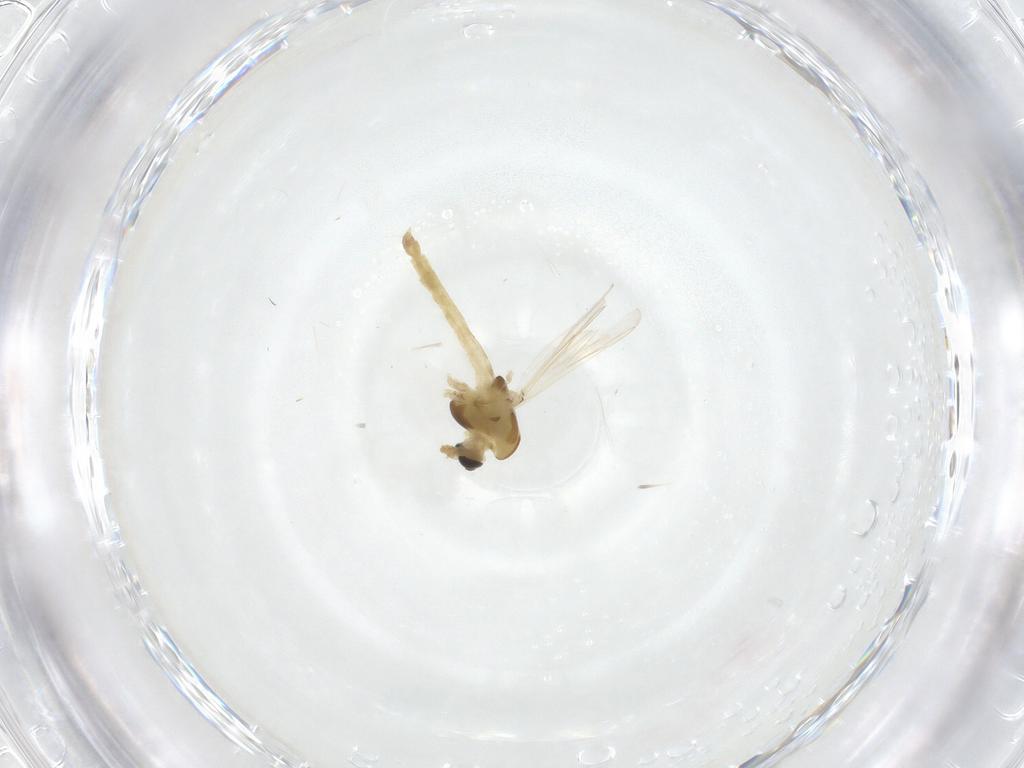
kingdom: Animalia
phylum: Arthropoda
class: Insecta
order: Diptera
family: Chironomidae
